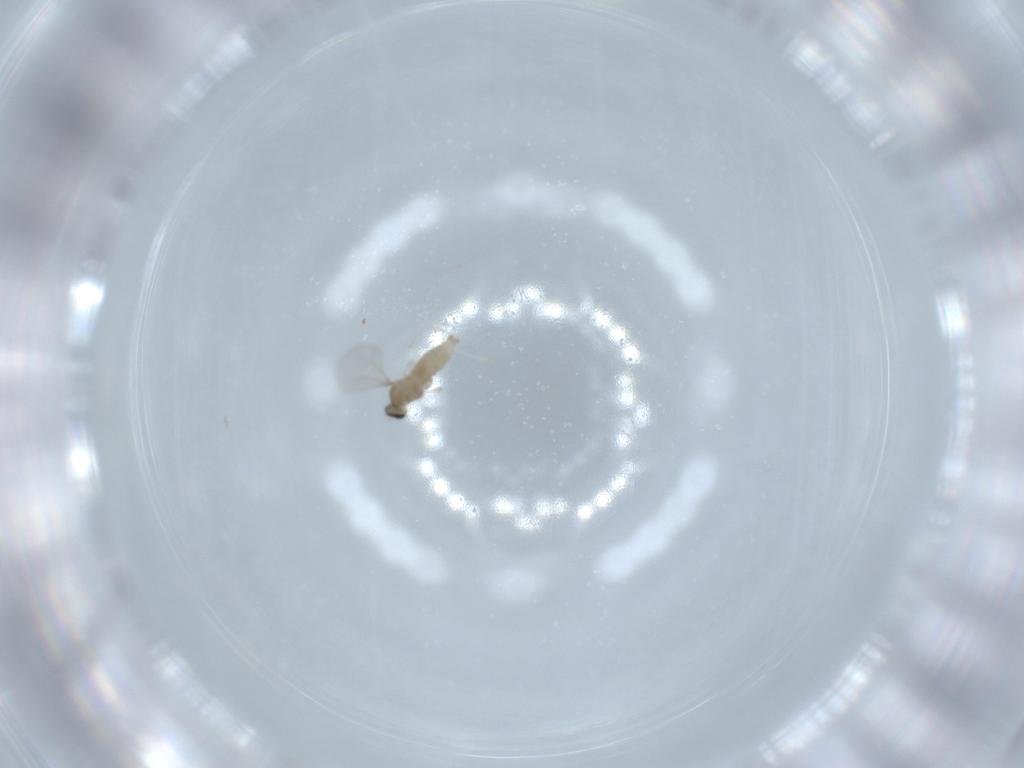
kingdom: Animalia
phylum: Arthropoda
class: Insecta
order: Diptera
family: Cecidomyiidae
